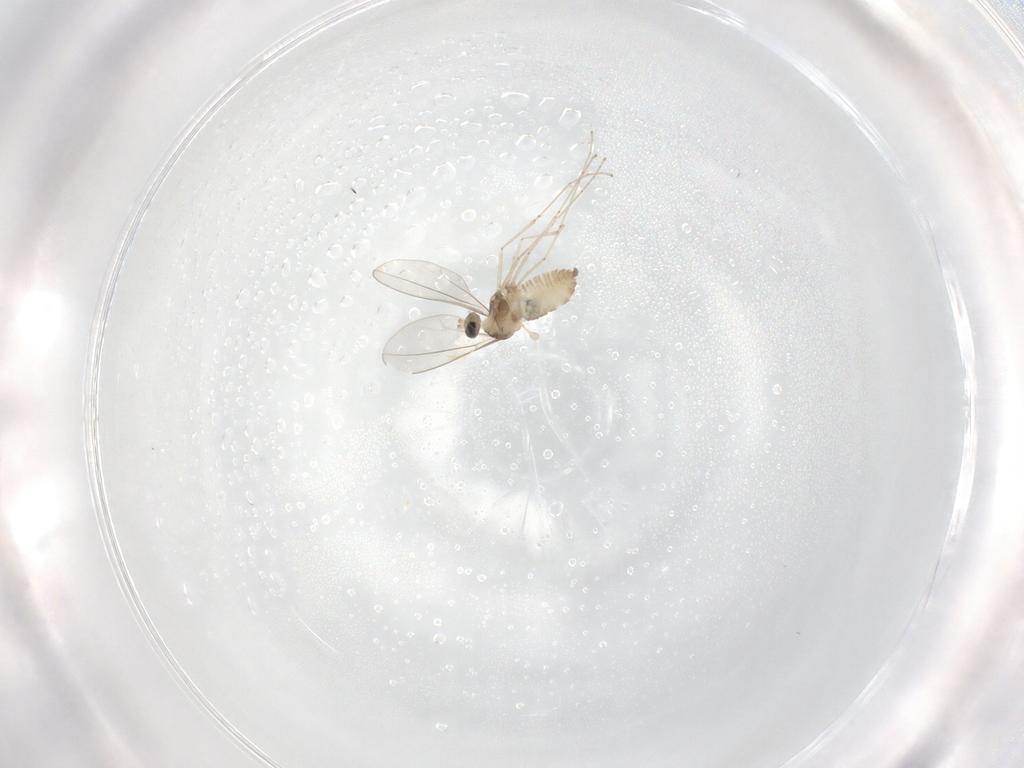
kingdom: Animalia
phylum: Arthropoda
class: Insecta
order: Diptera
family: Cecidomyiidae
